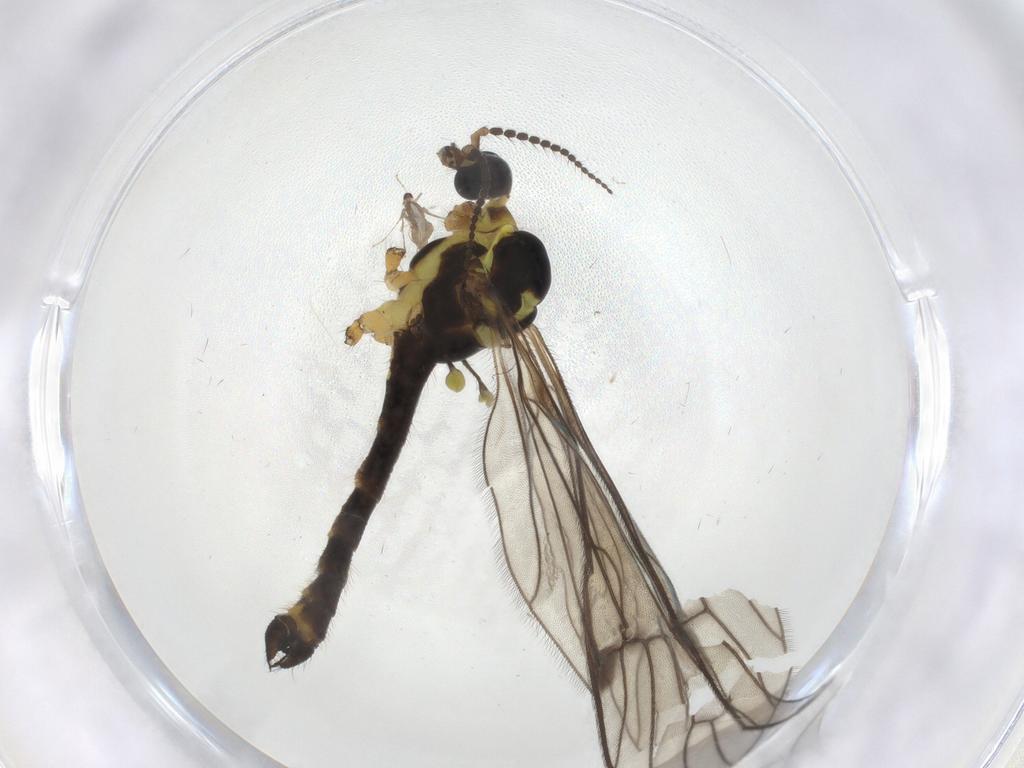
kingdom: Animalia
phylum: Arthropoda
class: Insecta
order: Diptera
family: Limoniidae
